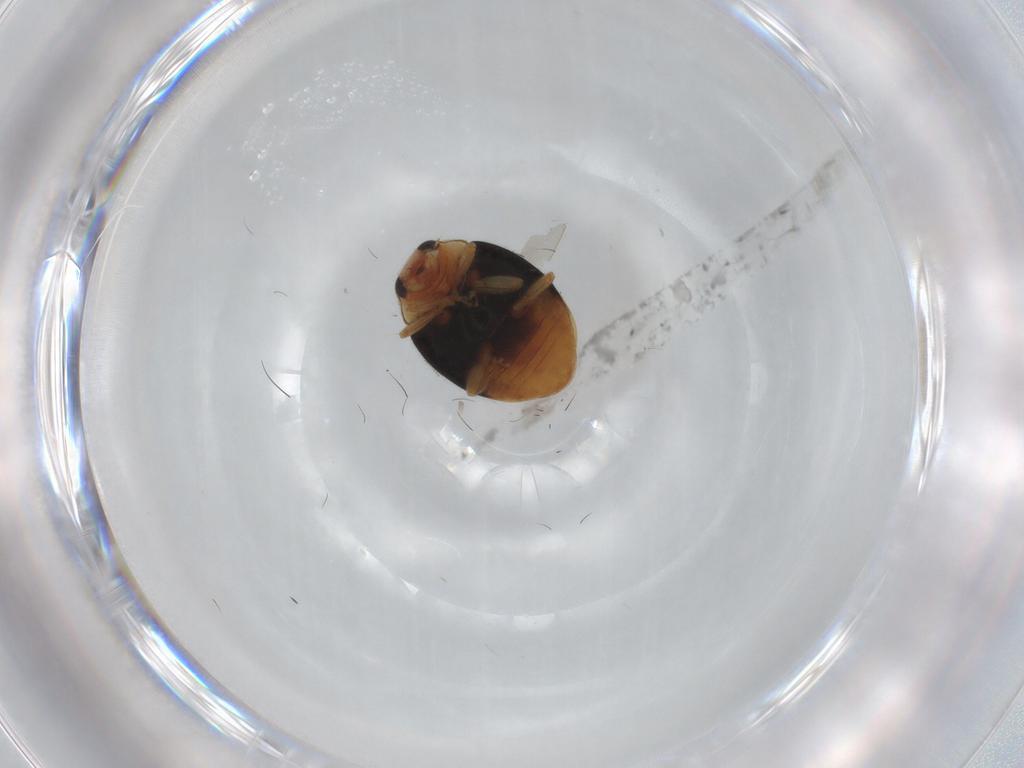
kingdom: Animalia
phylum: Arthropoda
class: Insecta
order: Coleoptera
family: Coccinellidae
